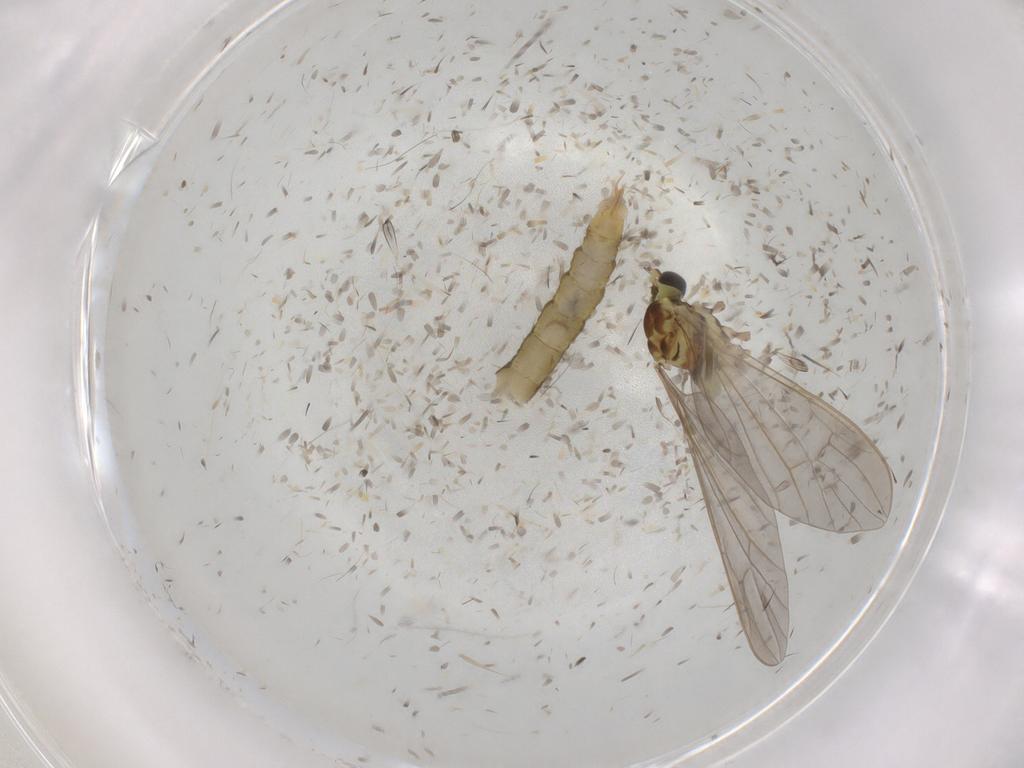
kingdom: Animalia
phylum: Arthropoda
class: Insecta
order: Diptera
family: Limoniidae
